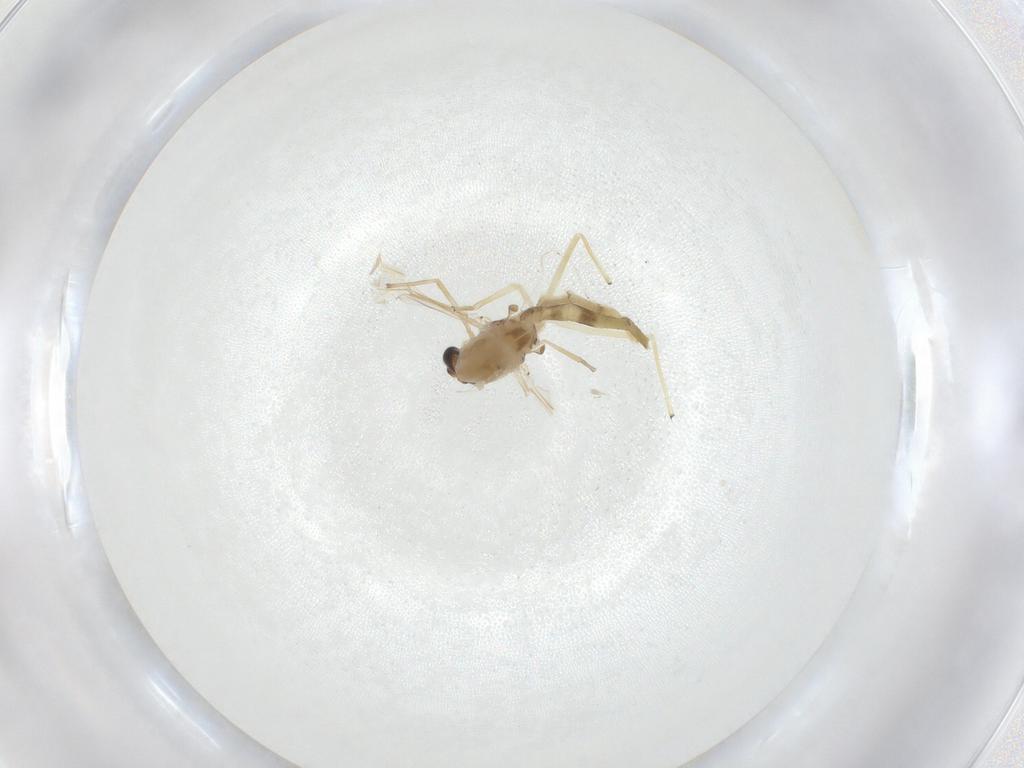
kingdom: Animalia
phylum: Arthropoda
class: Insecta
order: Diptera
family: Chironomidae
